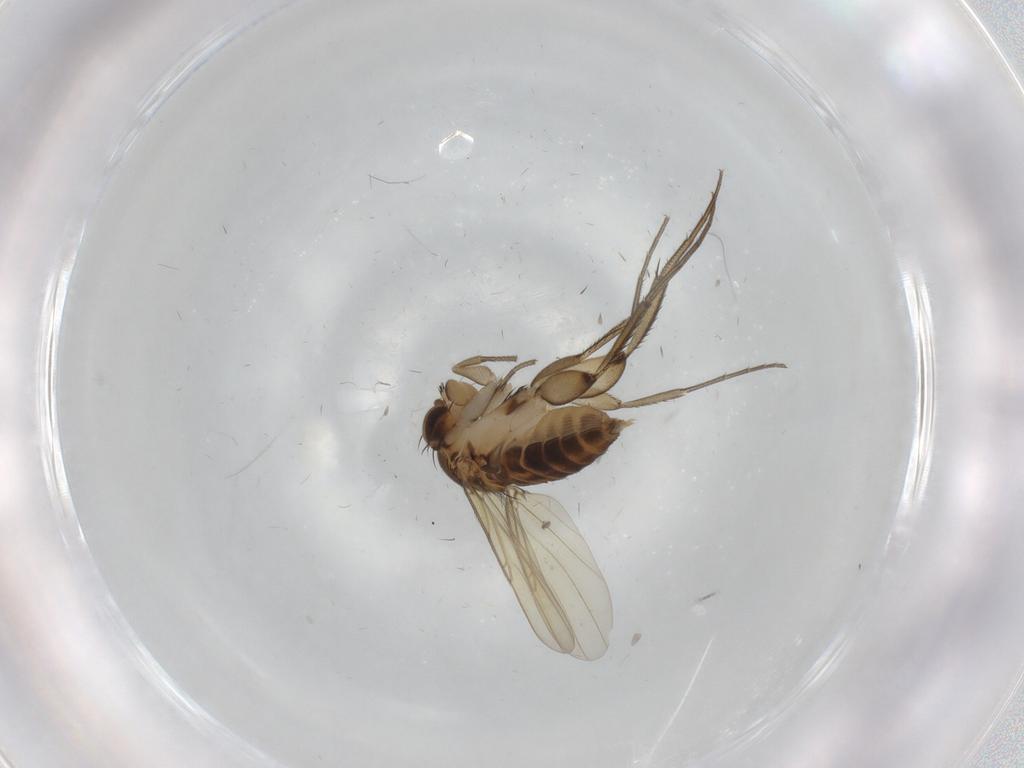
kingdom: Animalia
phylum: Arthropoda
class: Insecta
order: Diptera
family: Phoridae
